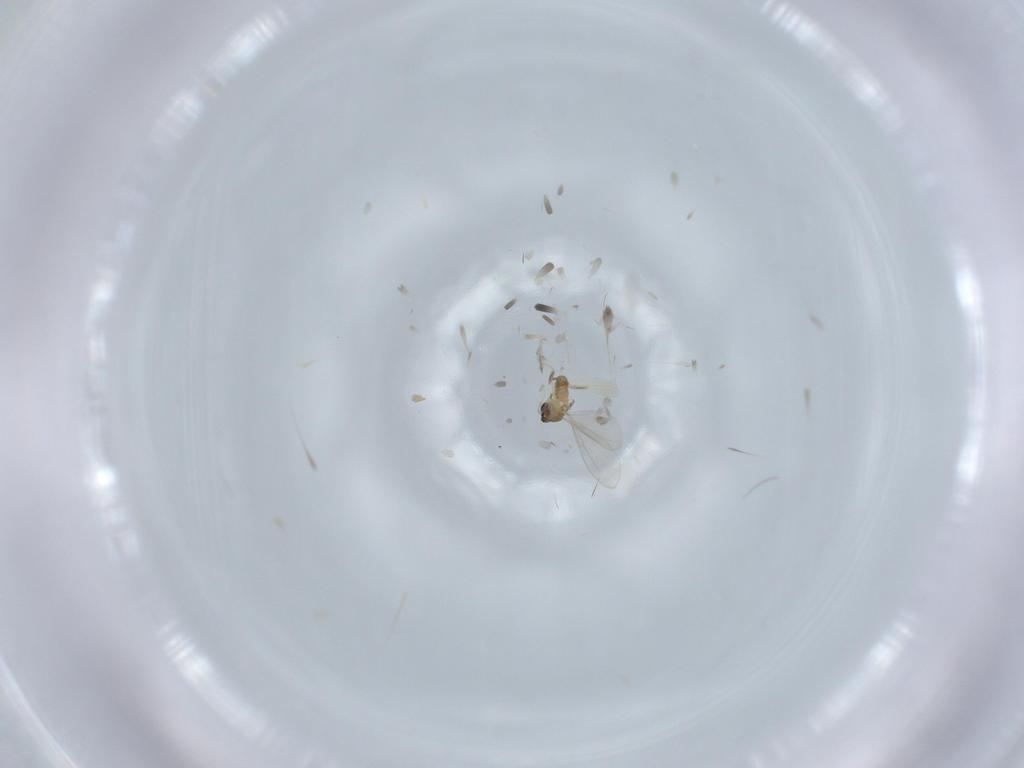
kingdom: Animalia
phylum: Arthropoda
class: Insecta
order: Diptera
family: Cecidomyiidae
